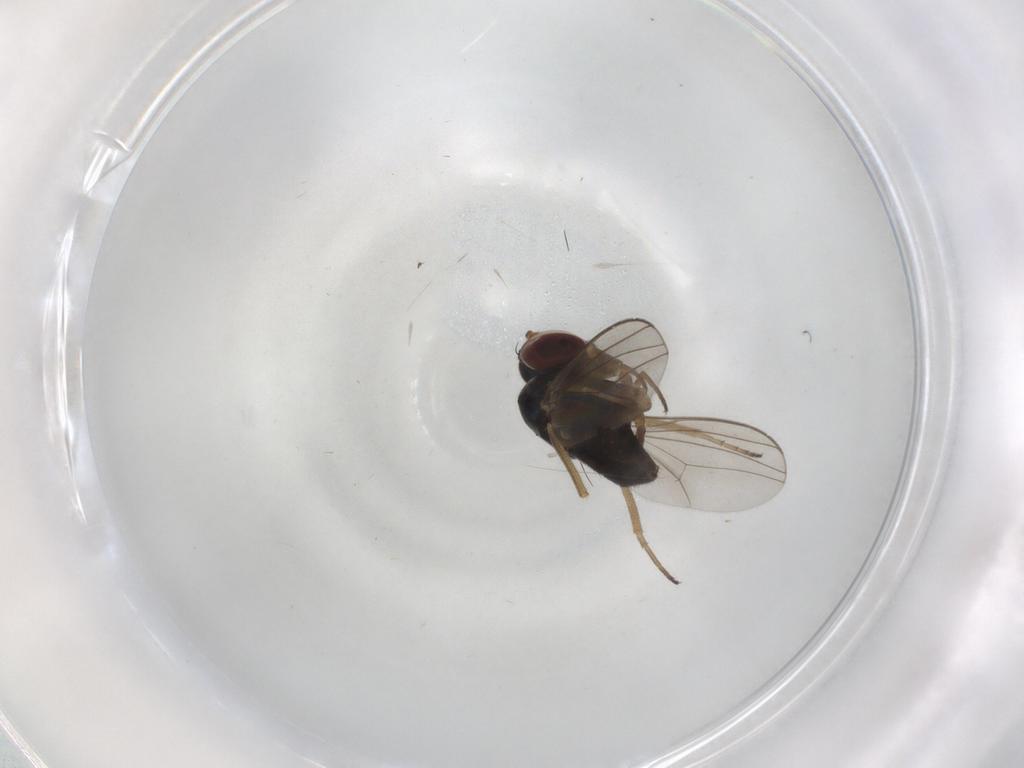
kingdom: Animalia
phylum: Arthropoda
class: Insecta
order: Diptera
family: Dolichopodidae
